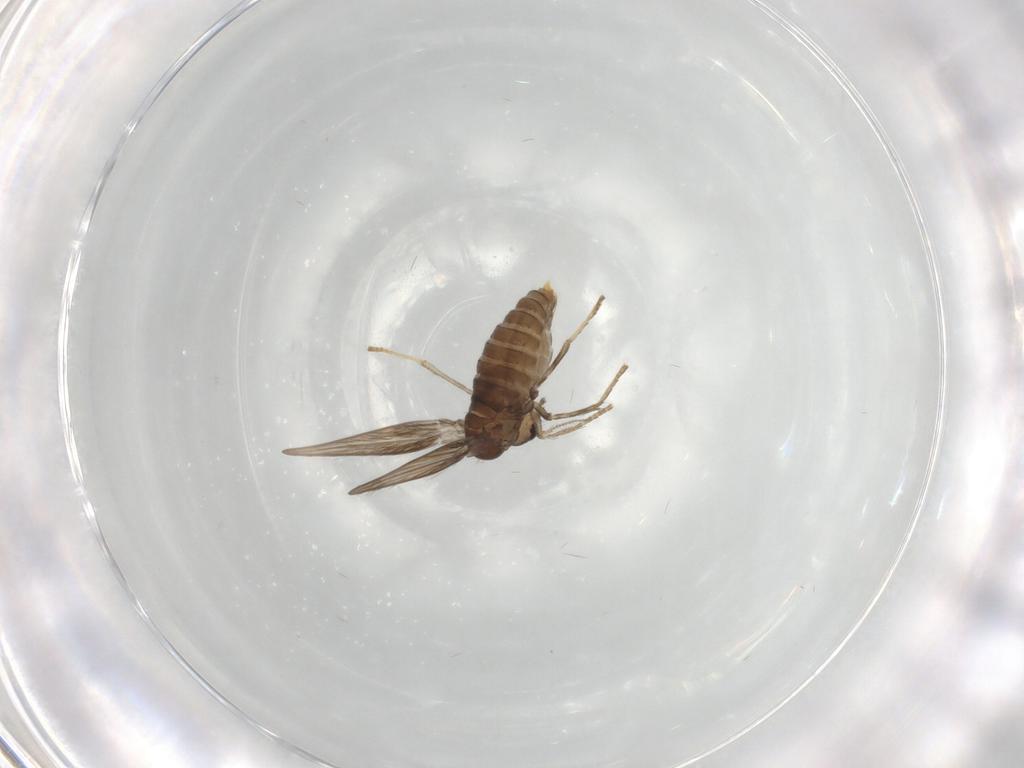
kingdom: Animalia
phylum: Arthropoda
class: Insecta
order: Diptera
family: Psychodidae
